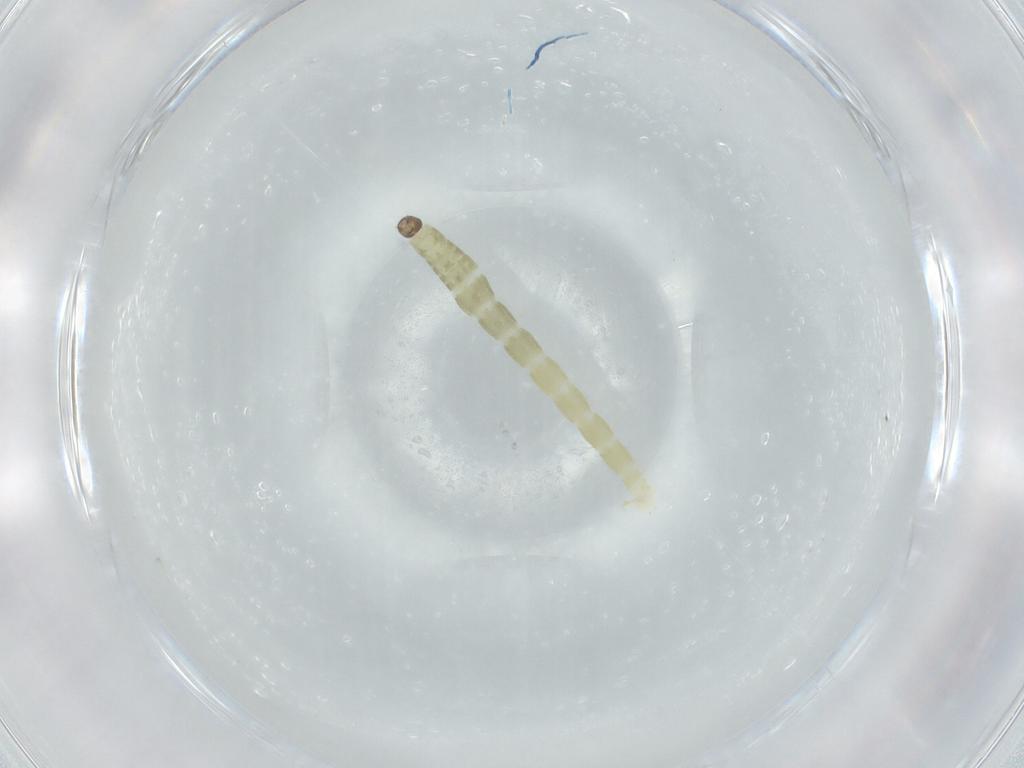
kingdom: Animalia
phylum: Arthropoda
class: Insecta
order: Diptera
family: Chironomidae
